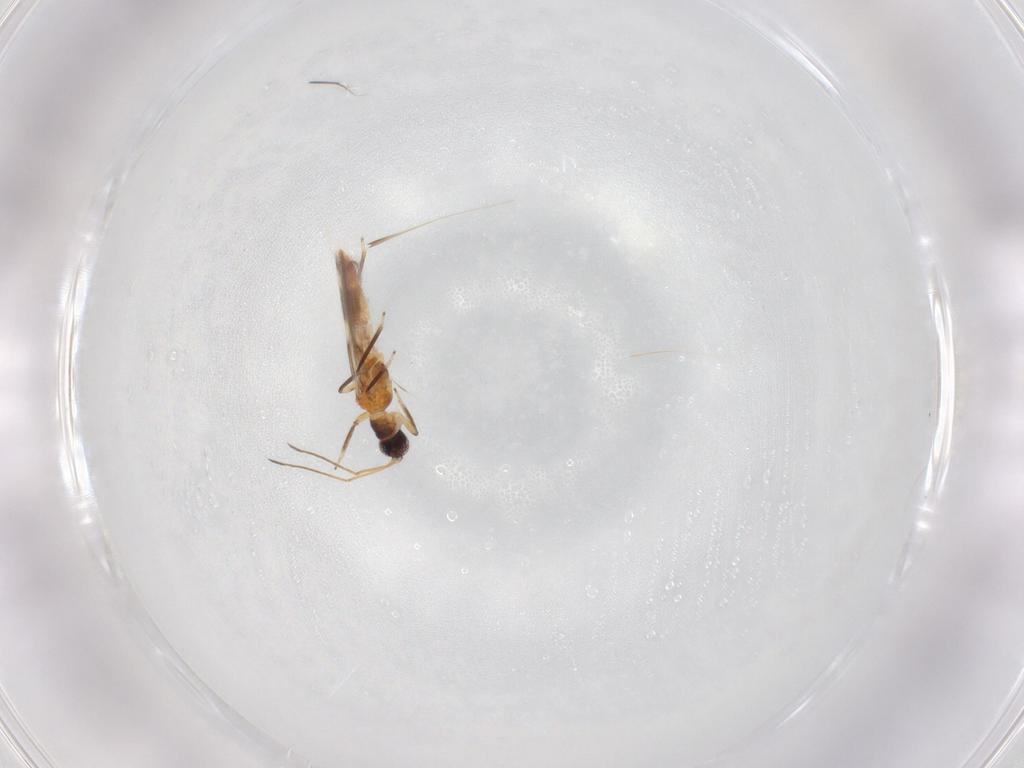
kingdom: Animalia
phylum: Arthropoda
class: Insecta
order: Thysanoptera
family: Aeolothripidae
